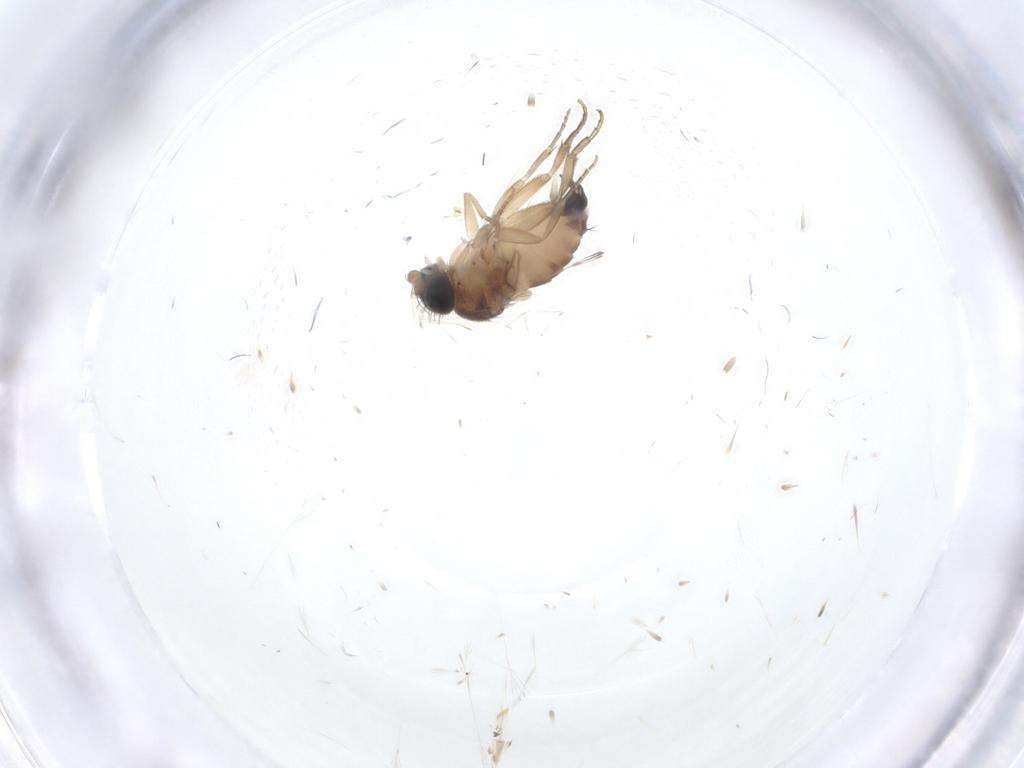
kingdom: Animalia
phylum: Arthropoda
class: Insecta
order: Diptera
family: Phoridae
